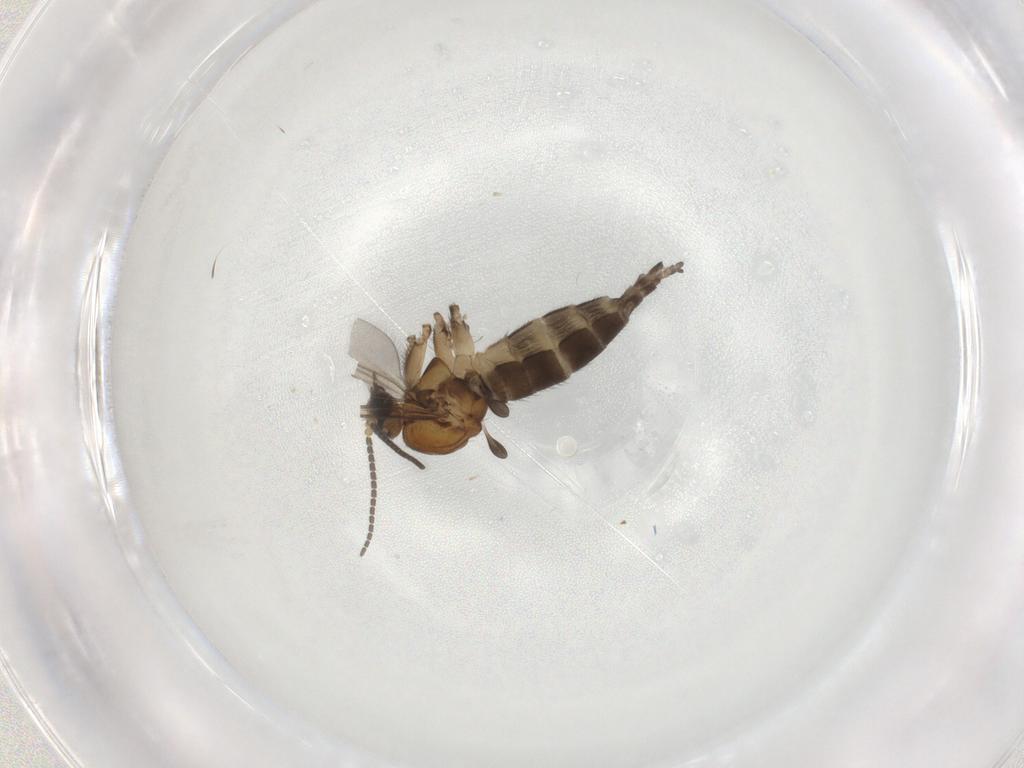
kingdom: Animalia
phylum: Arthropoda
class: Insecta
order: Diptera
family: Sciaridae
